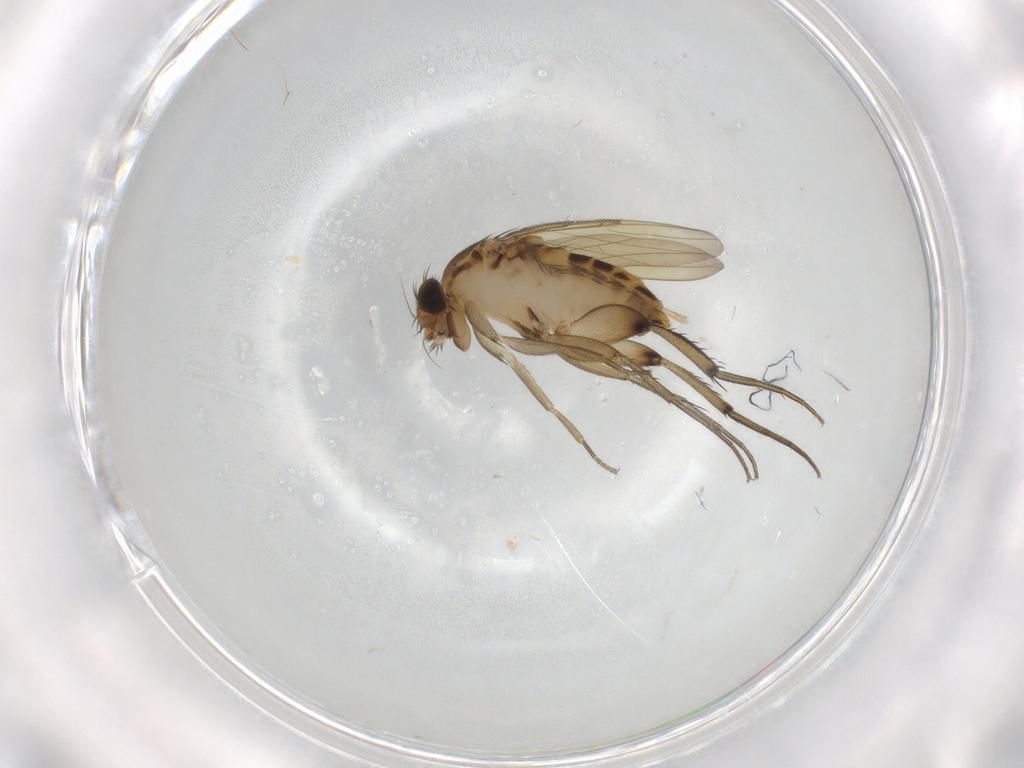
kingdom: Animalia
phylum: Arthropoda
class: Insecta
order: Diptera
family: Phoridae
